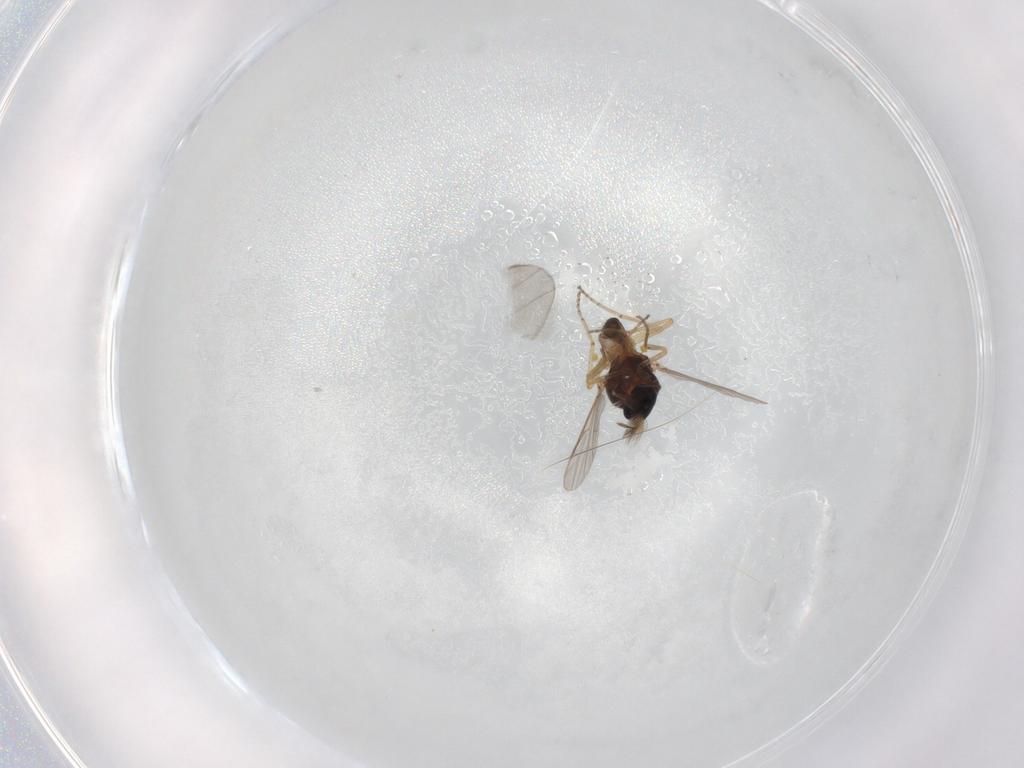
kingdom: Animalia
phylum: Arthropoda
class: Insecta
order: Diptera
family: Ceratopogonidae
